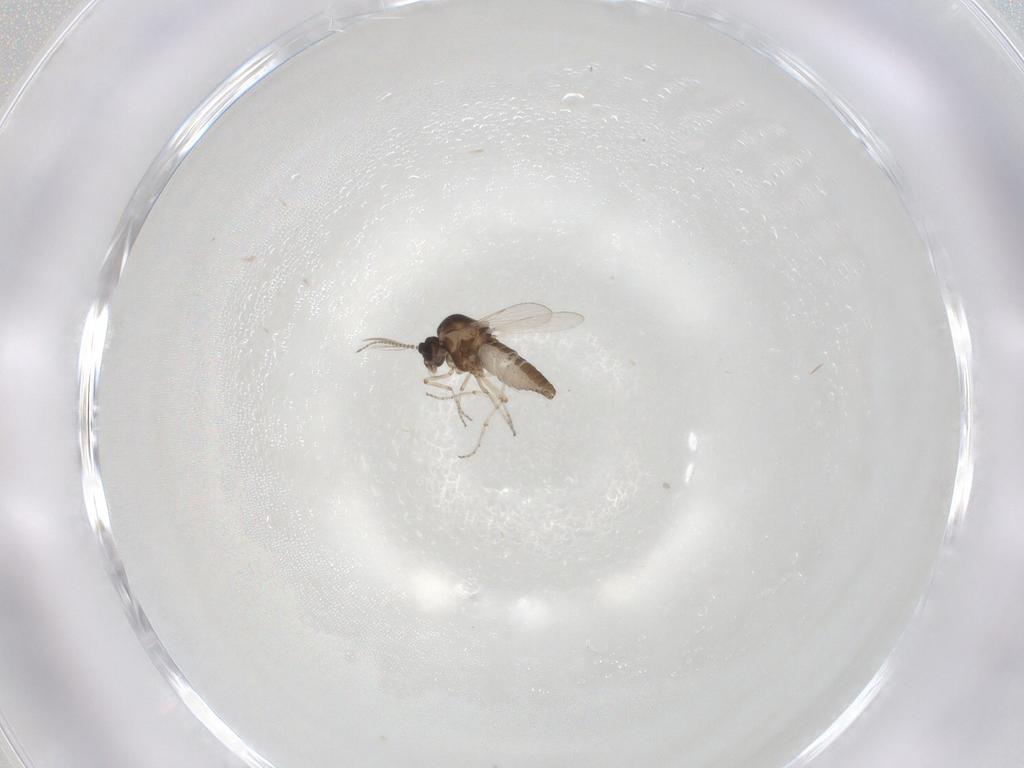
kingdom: Animalia
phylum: Arthropoda
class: Insecta
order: Diptera
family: Ceratopogonidae
